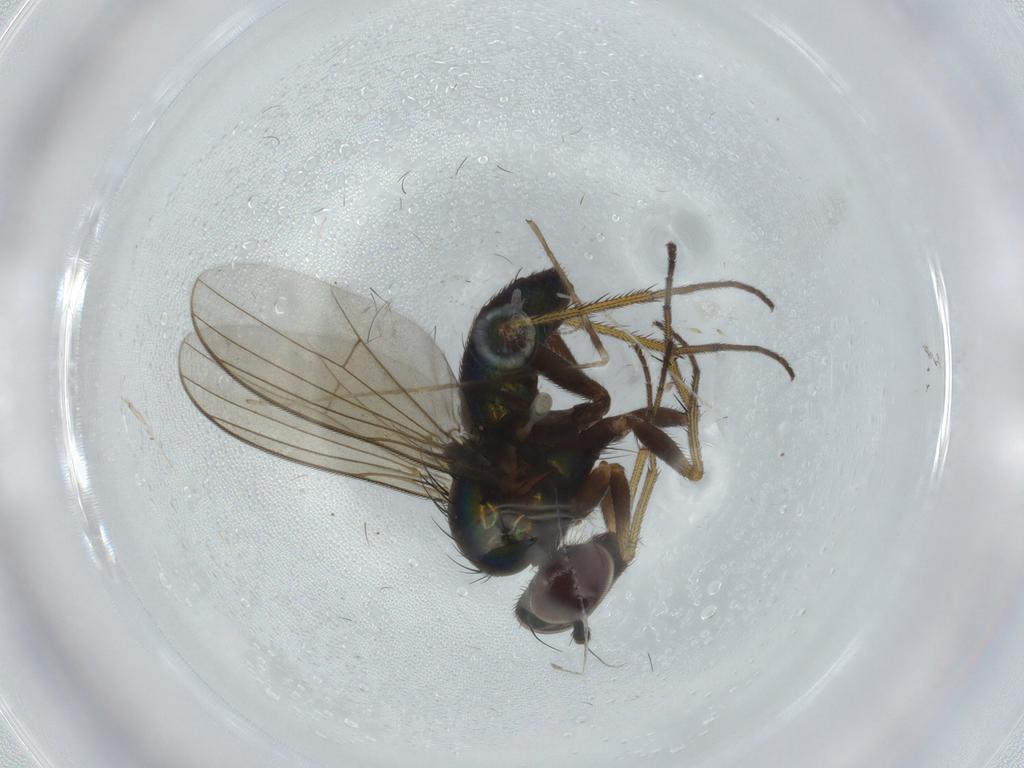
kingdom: Animalia
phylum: Arthropoda
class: Insecta
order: Diptera
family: Dolichopodidae
